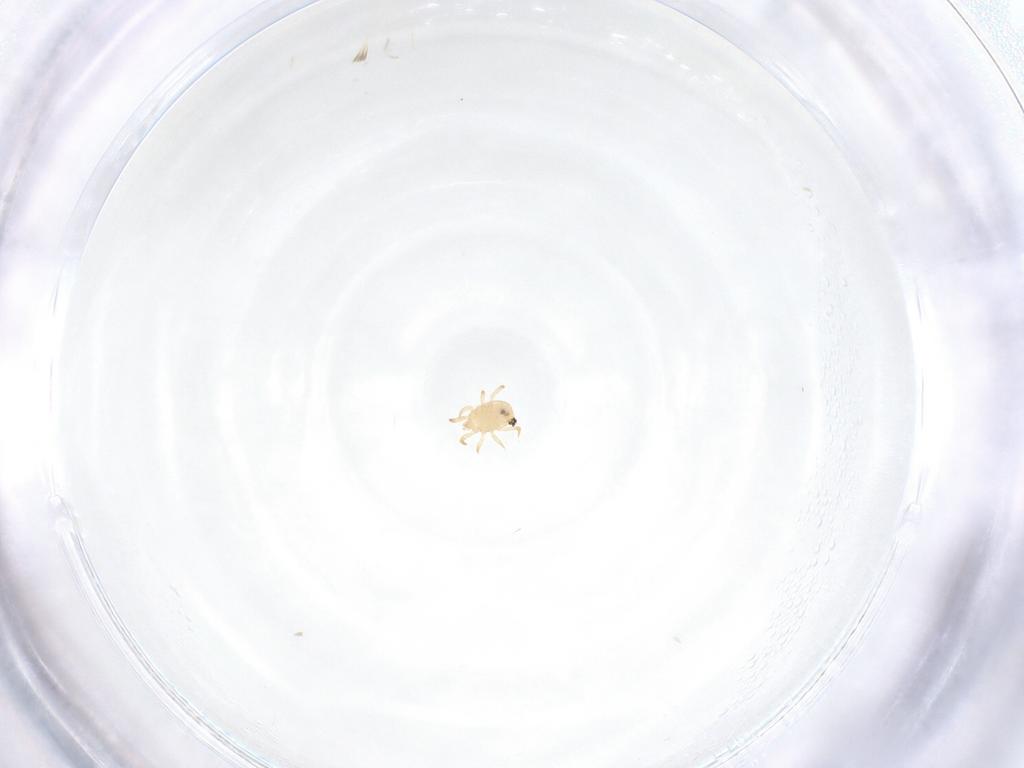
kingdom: Animalia
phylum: Arthropoda
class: Arachnida
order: Mesostigmata
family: Ameroseiidae
